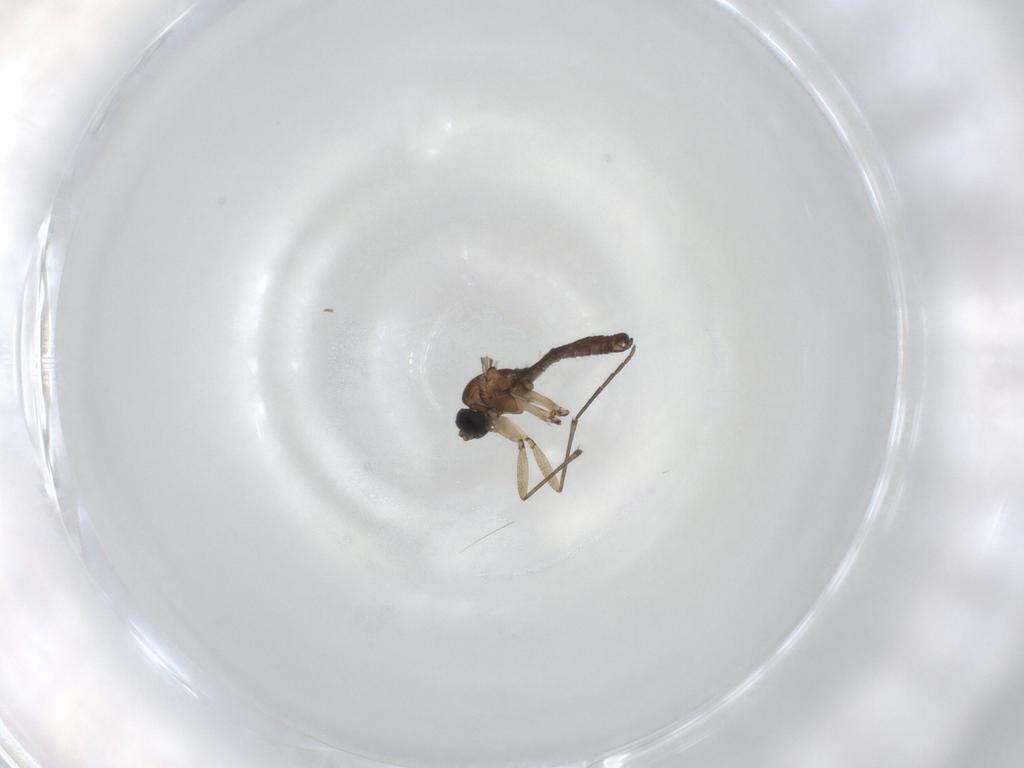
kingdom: Animalia
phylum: Arthropoda
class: Insecta
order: Diptera
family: Sciaridae
